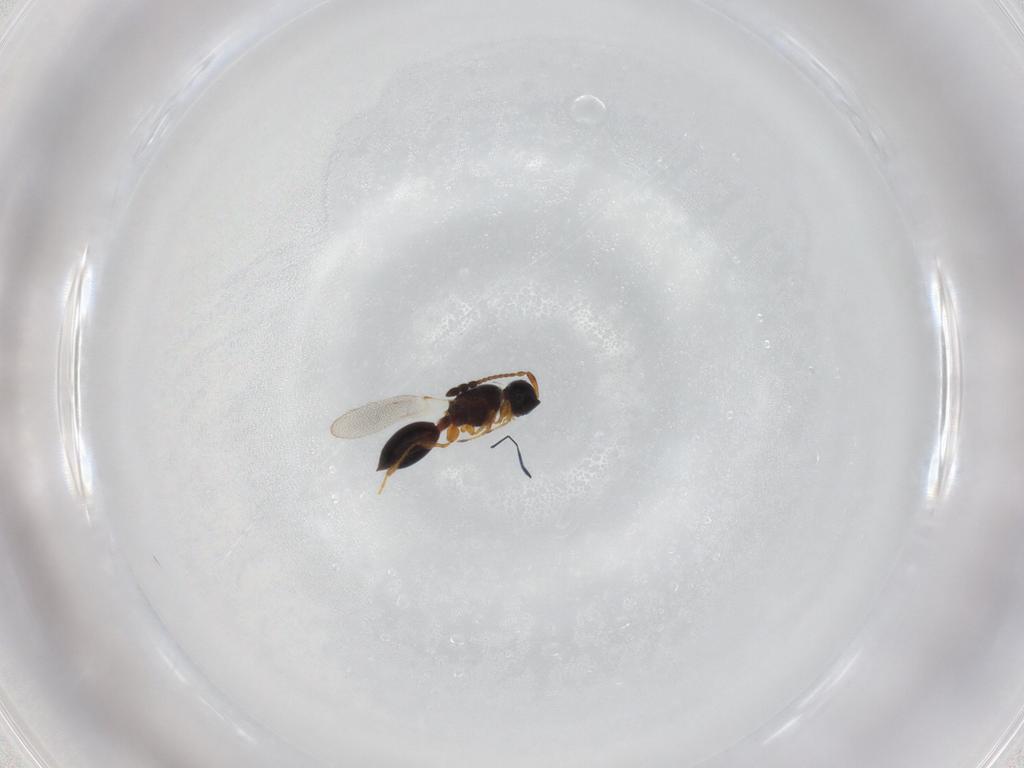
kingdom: Animalia
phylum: Arthropoda
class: Insecta
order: Hymenoptera
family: Diapriidae
